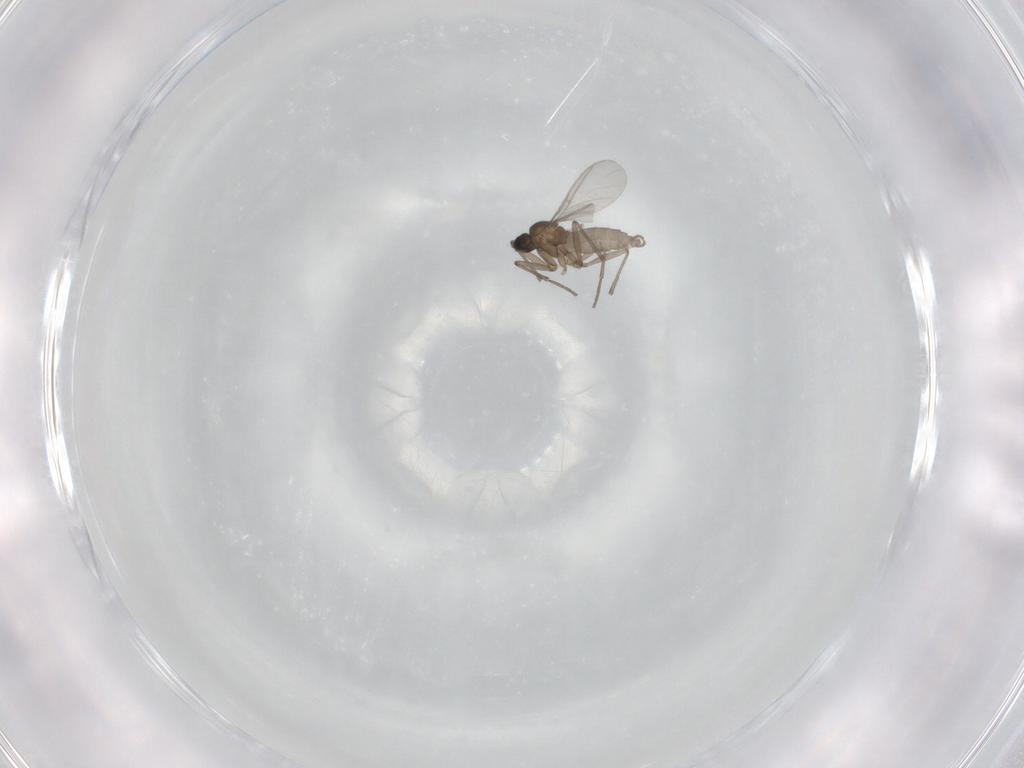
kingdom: Animalia
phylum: Arthropoda
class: Insecta
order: Diptera
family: Sciaridae
